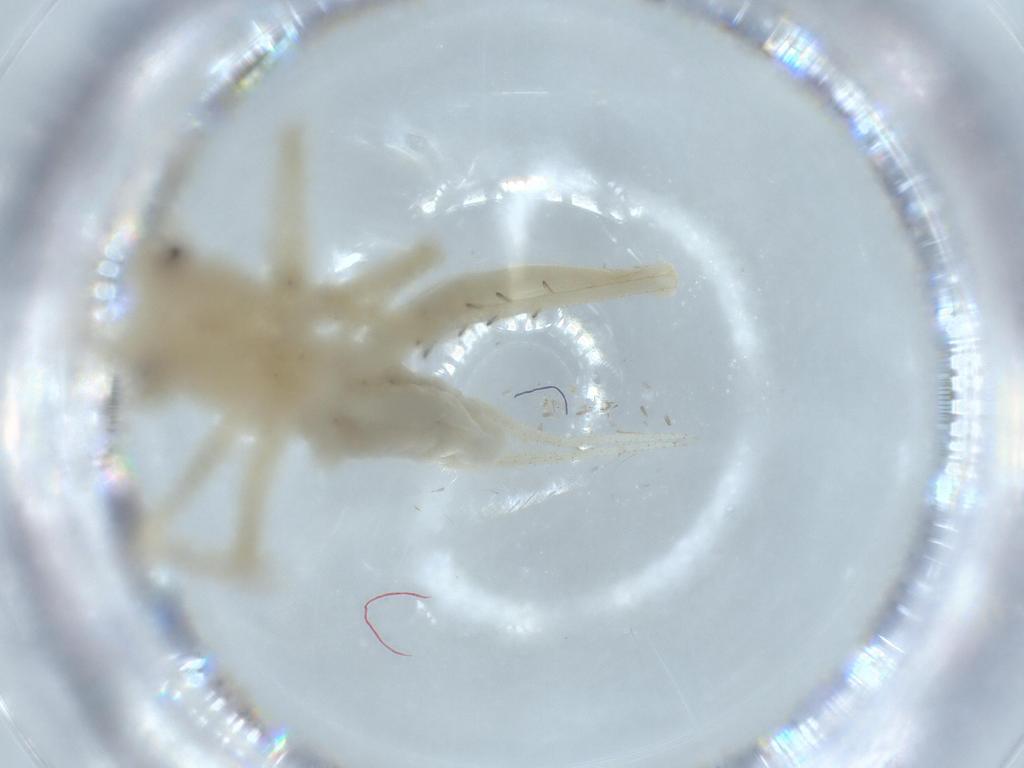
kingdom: Animalia
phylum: Arthropoda
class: Insecta
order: Orthoptera
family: Trigonidiidae
